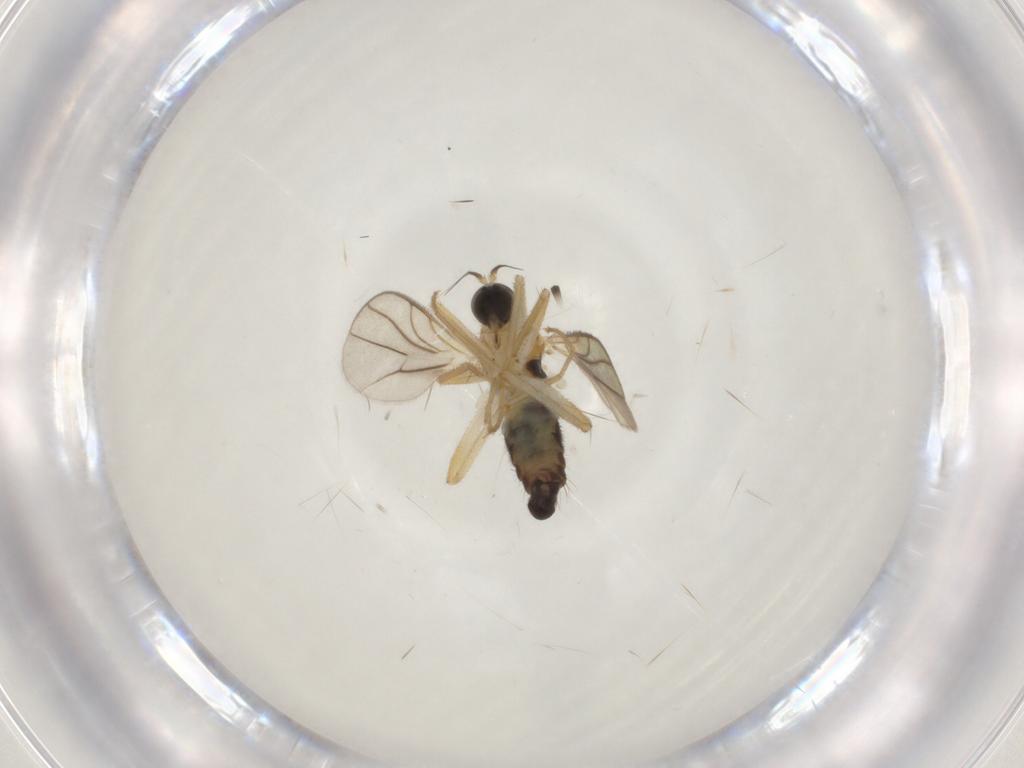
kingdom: Animalia
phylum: Arthropoda
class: Insecta
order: Diptera
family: Hybotidae
